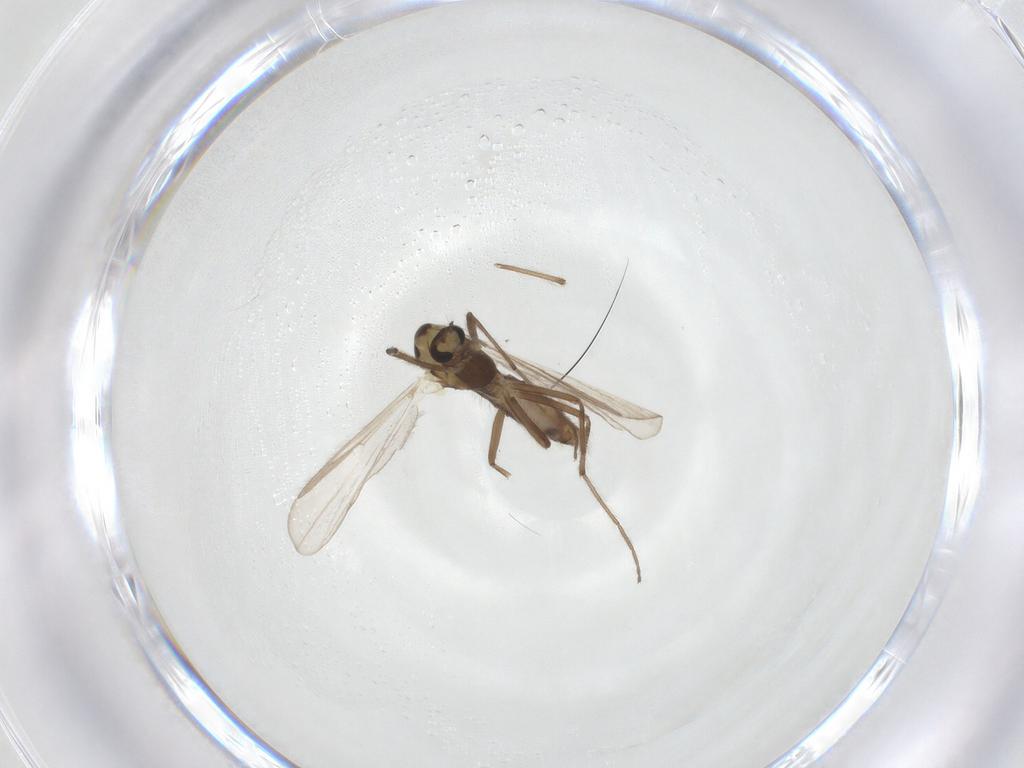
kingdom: Animalia
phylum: Arthropoda
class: Insecta
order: Diptera
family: Chironomidae
